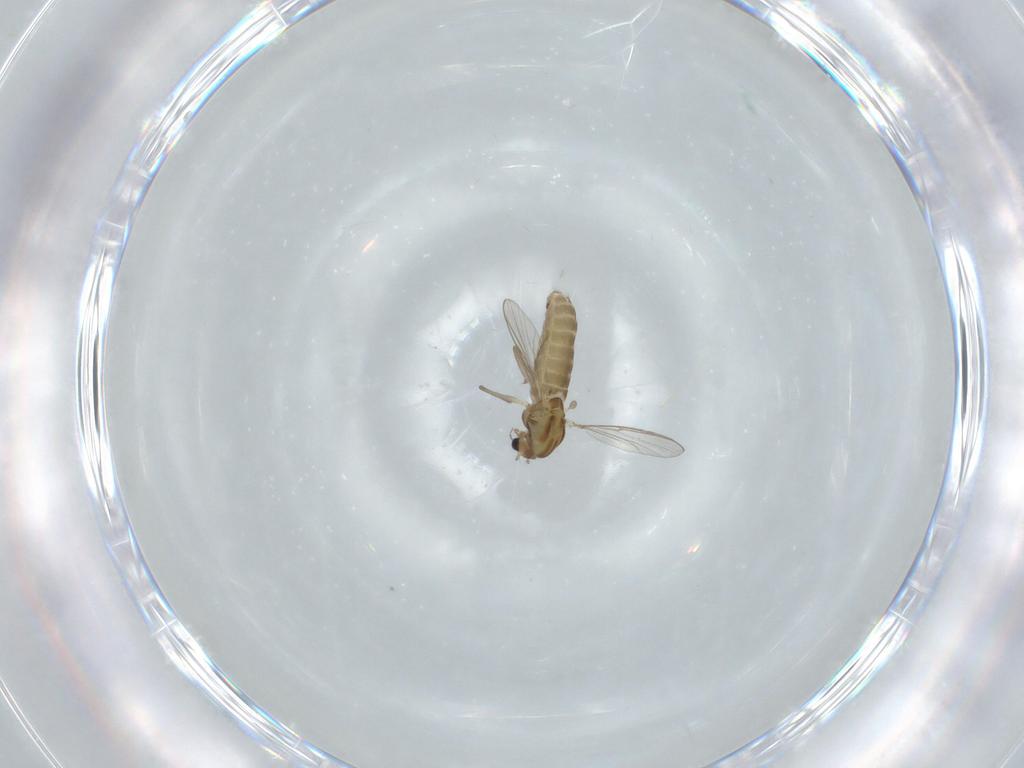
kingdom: Animalia
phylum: Arthropoda
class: Insecta
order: Diptera
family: Chironomidae
